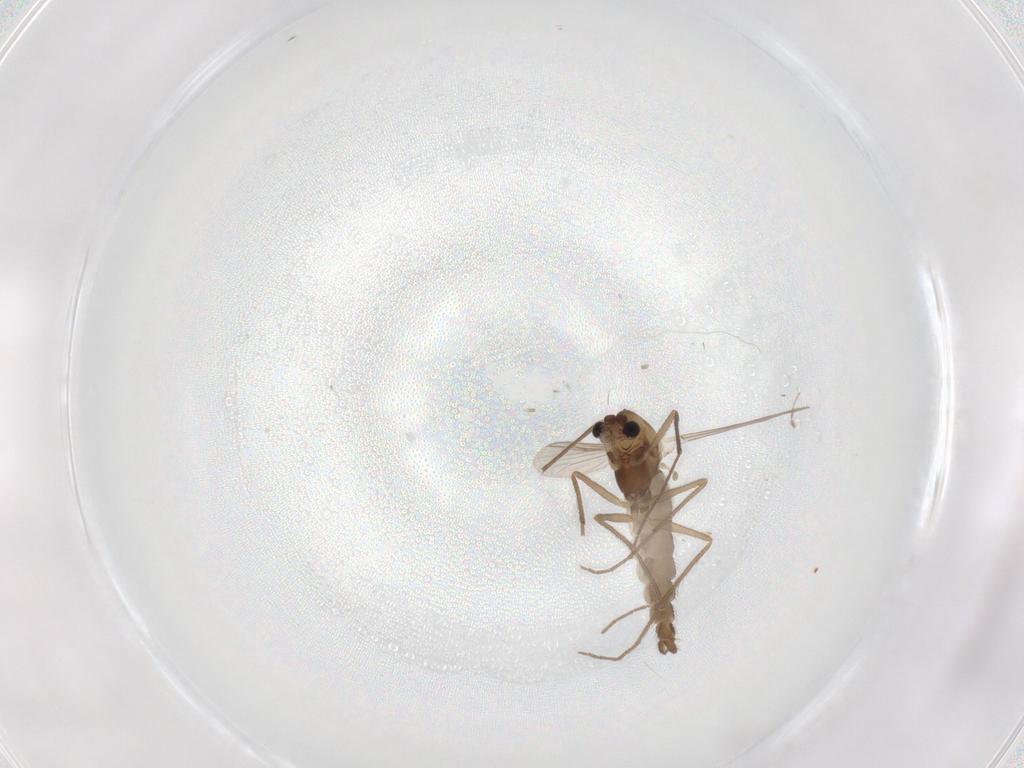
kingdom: Animalia
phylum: Arthropoda
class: Insecta
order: Diptera
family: Chironomidae
